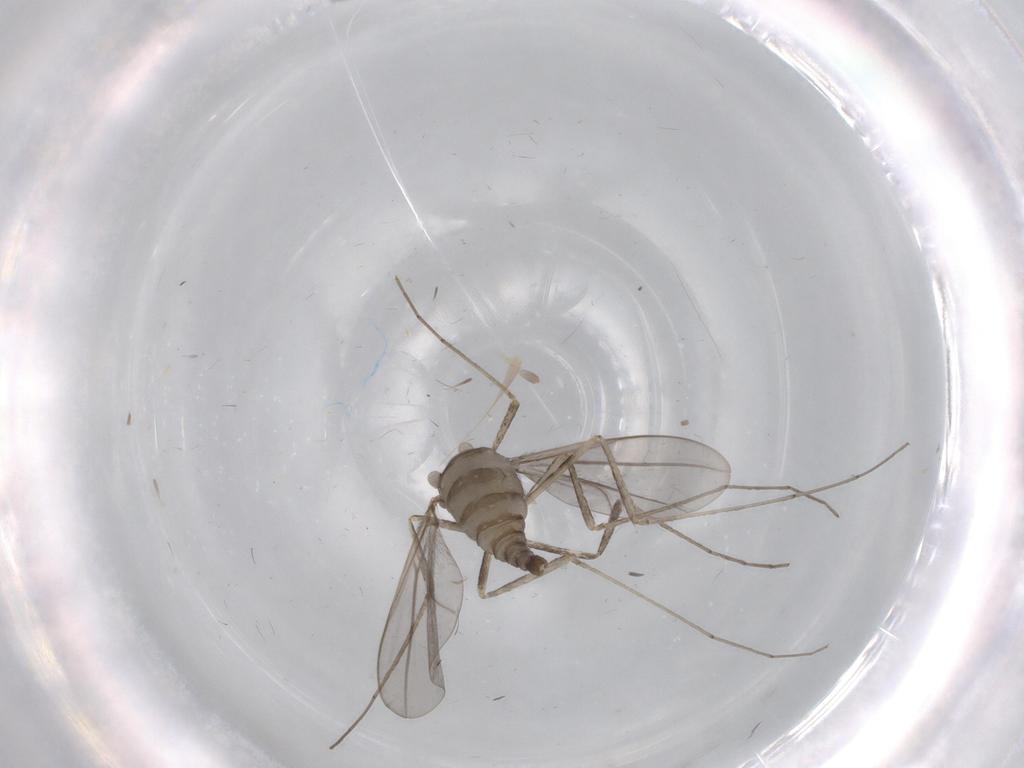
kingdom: Animalia
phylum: Arthropoda
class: Insecta
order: Diptera
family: Cecidomyiidae
